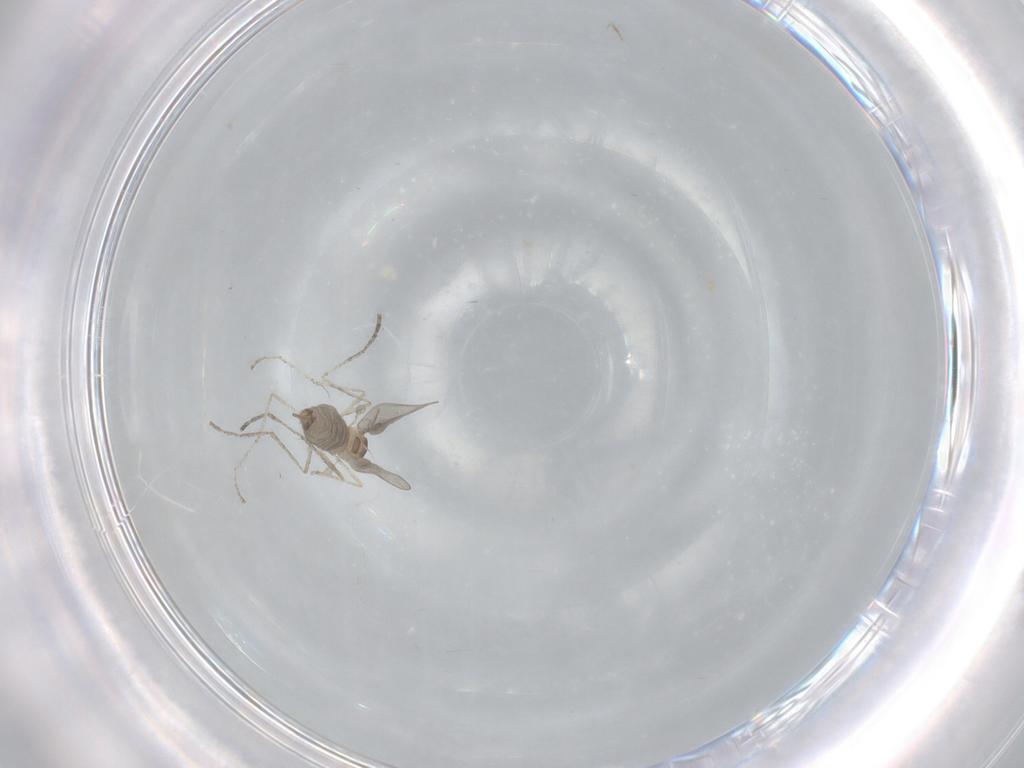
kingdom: Animalia
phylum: Arthropoda
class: Insecta
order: Diptera
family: Cecidomyiidae
